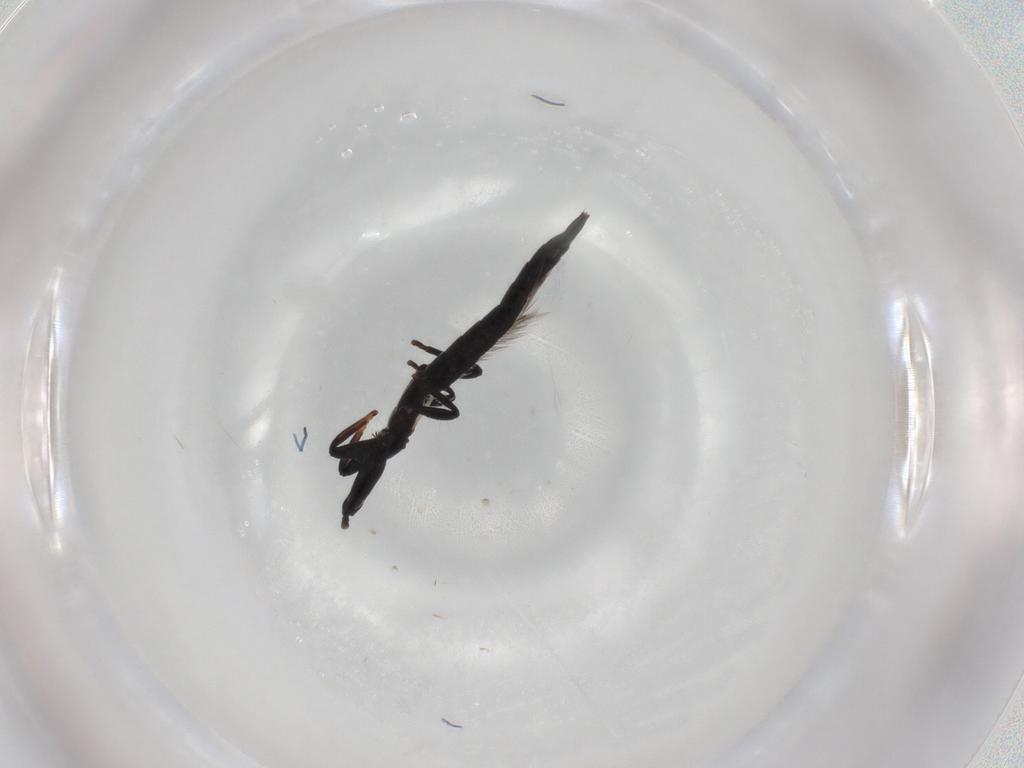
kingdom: Animalia
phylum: Arthropoda
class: Insecta
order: Thysanoptera
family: Phlaeothripidae
